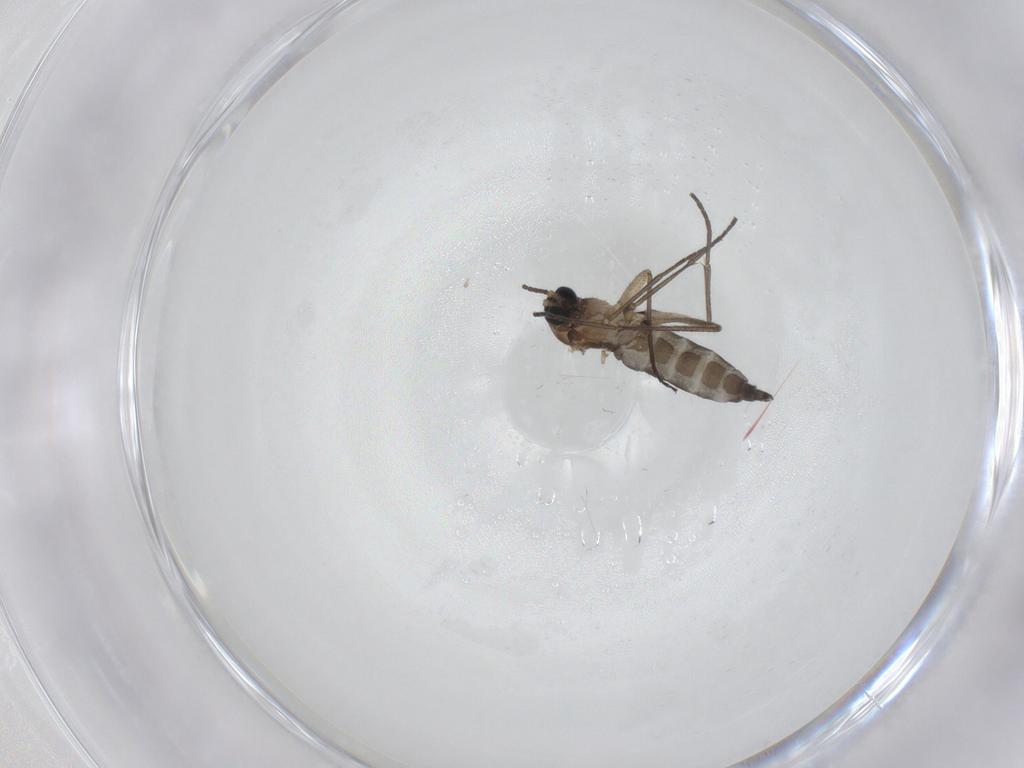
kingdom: Animalia
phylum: Arthropoda
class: Insecta
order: Diptera
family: Sciaridae
